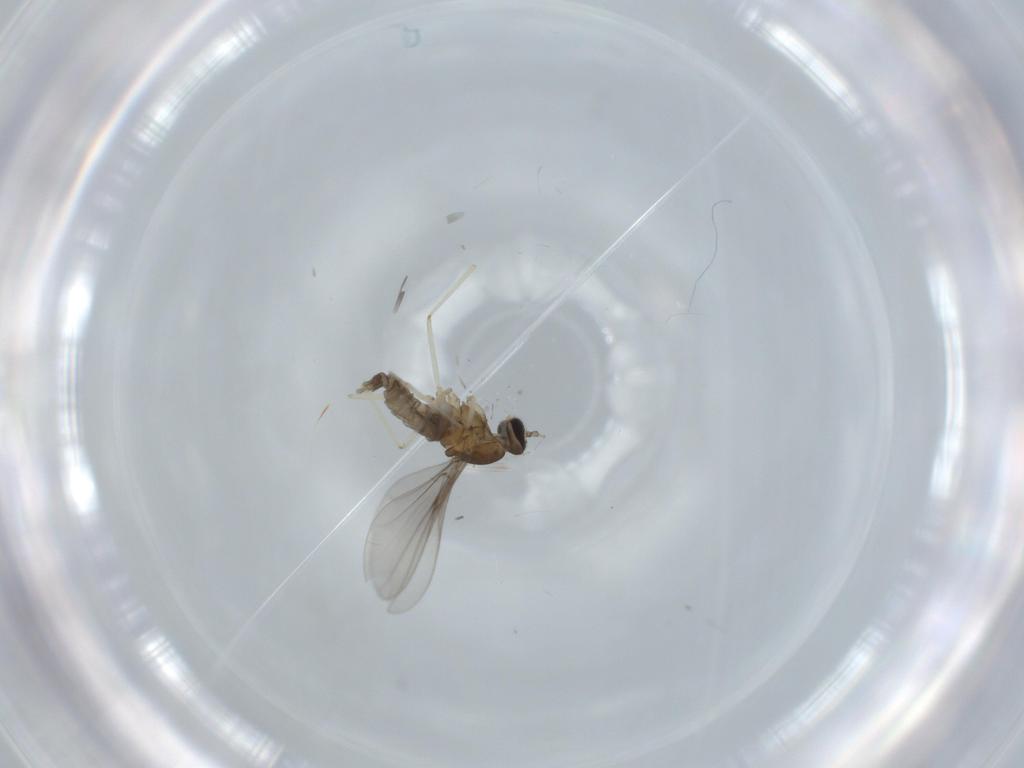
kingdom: Animalia
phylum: Arthropoda
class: Insecta
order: Diptera
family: Cecidomyiidae
